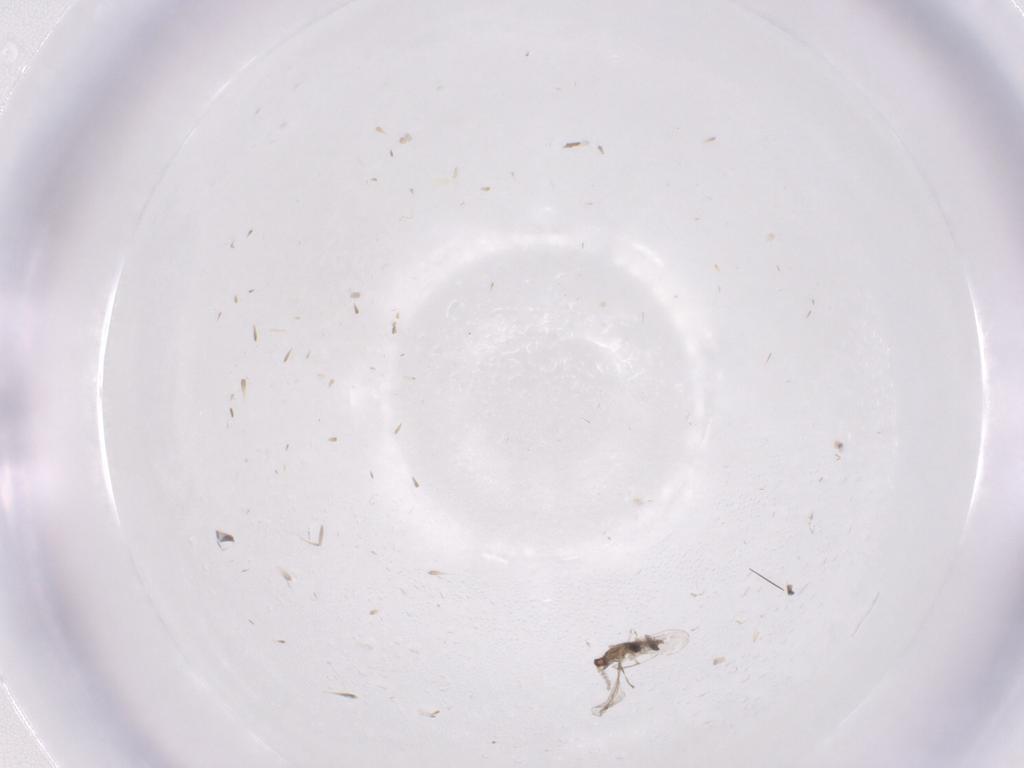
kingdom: Animalia
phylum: Arthropoda
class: Insecta
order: Diptera
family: Cecidomyiidae
